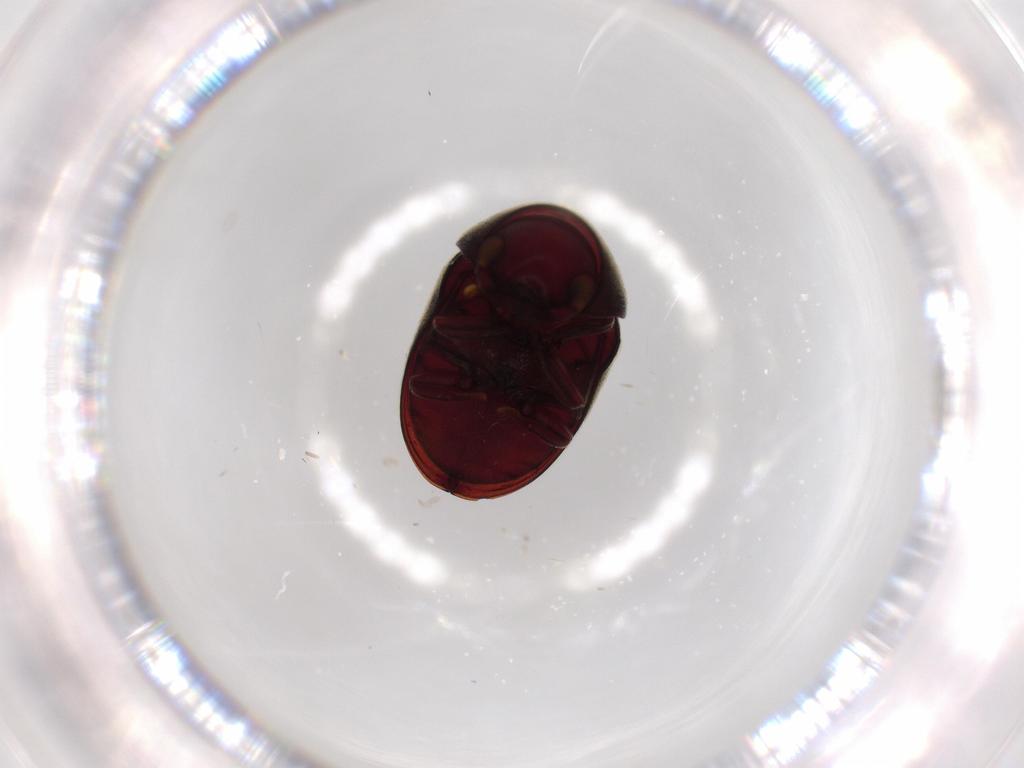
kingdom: Animalia
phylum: Arthropoda
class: Insecta
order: Coleoptera
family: Ptinidae
